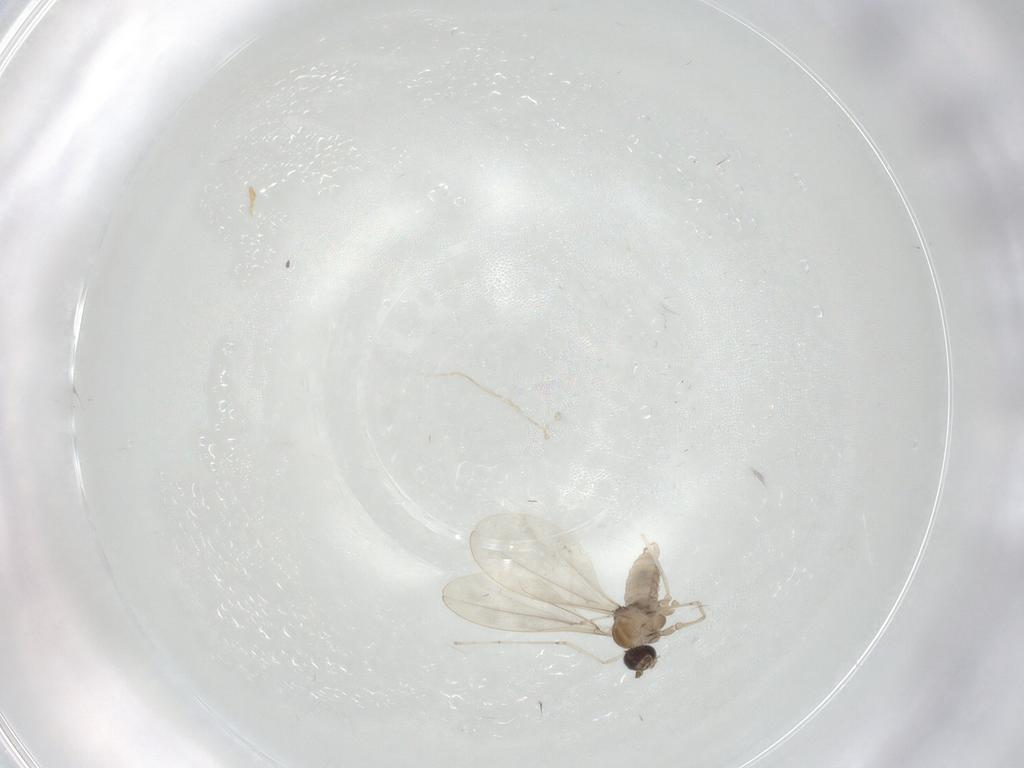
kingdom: Animalia
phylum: Arthropoda
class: Insecta
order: Diptera
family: Cecidomyiidae
